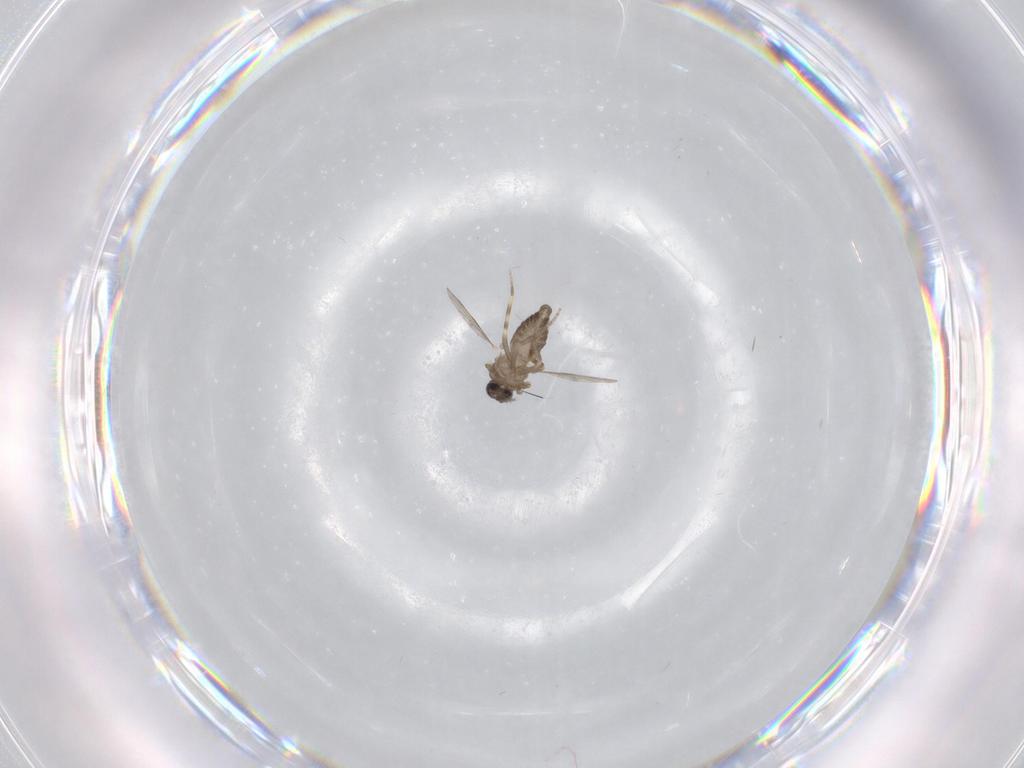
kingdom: Animalia
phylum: Arthropoda
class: Insecta
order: Diptera
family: Ceratopogonidae
